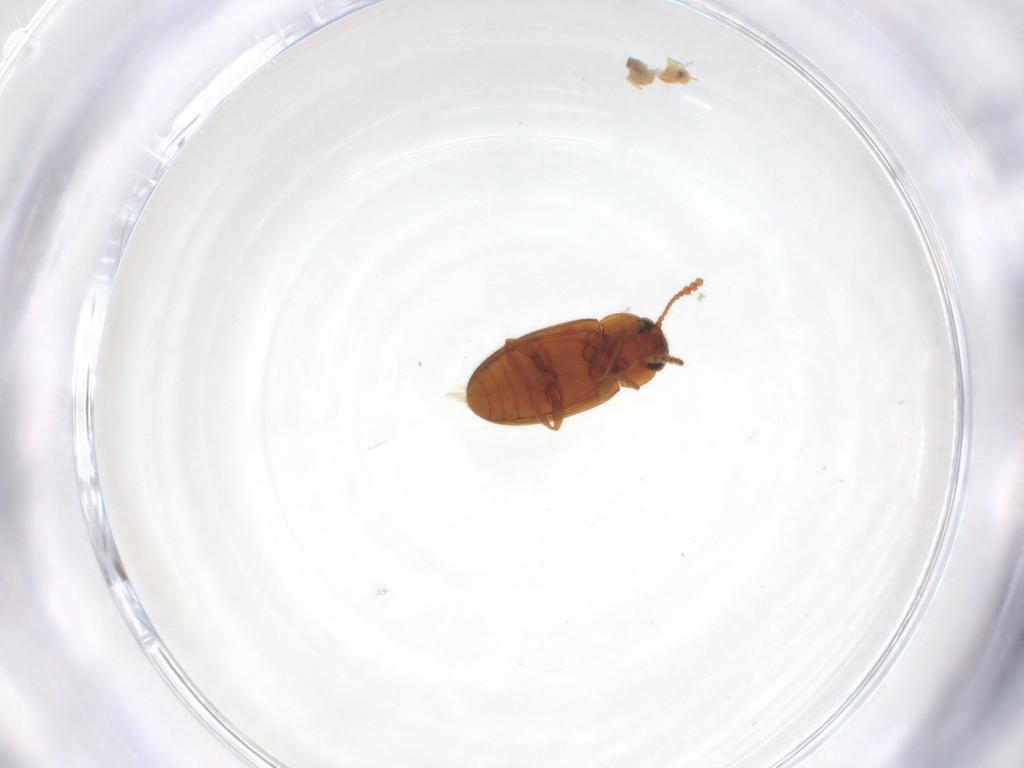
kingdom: Animalia
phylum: Arthropoda
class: Insecta
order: Coleoptera
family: Erotylidae
